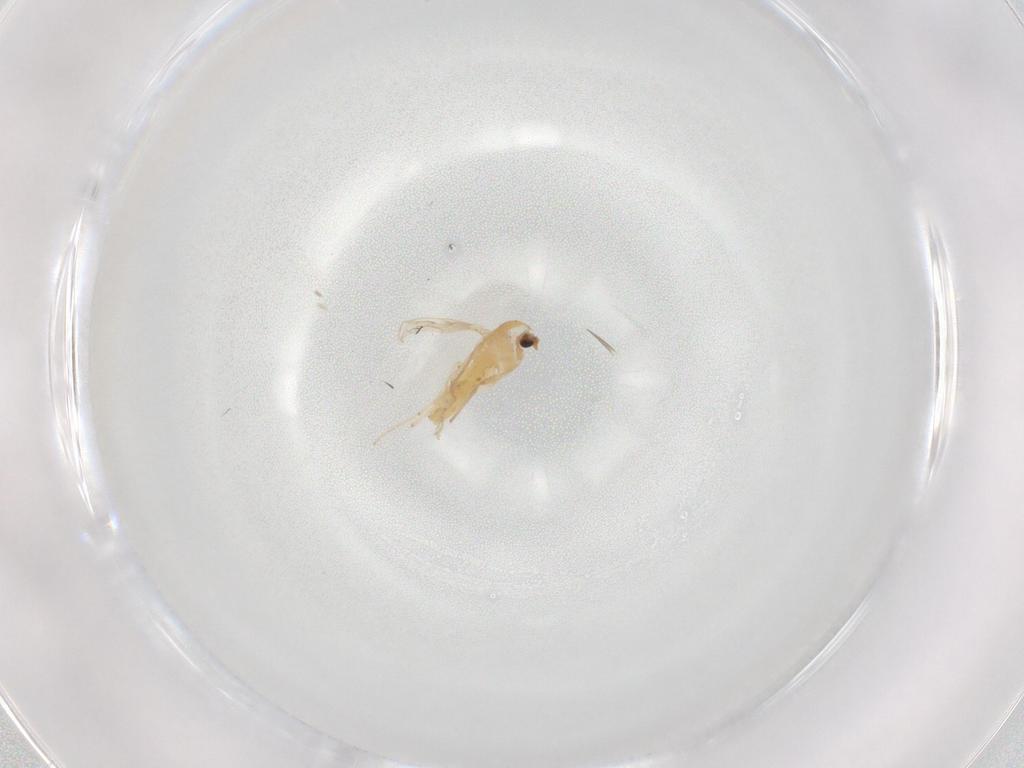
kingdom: Animalia
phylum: Arthropoda
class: Insecta
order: Diptera
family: Chironomidae
